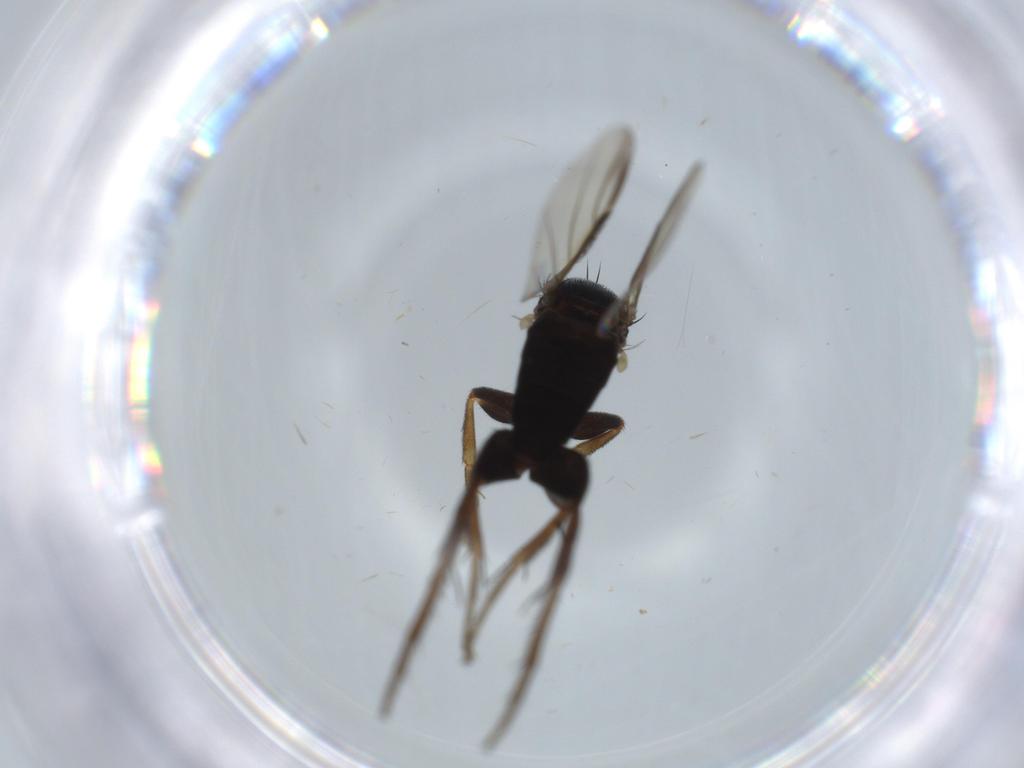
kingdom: Animalia
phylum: Arthropoda
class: Insecta
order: Diptera
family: Phoridae
